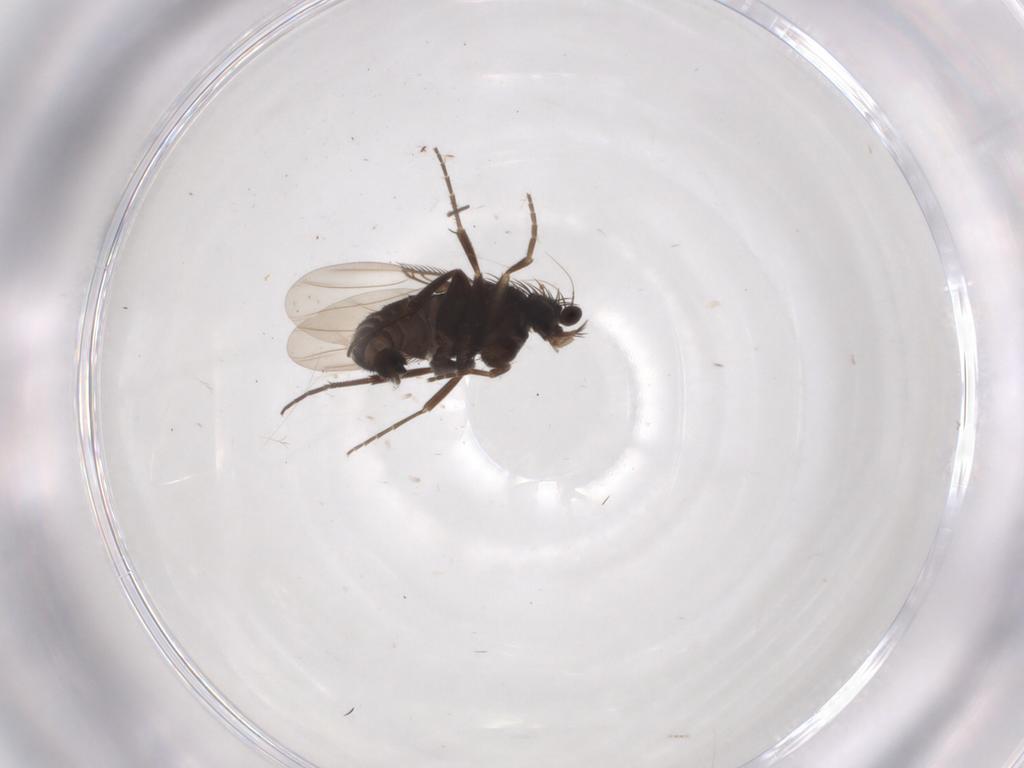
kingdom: Animalia
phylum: Arthropoda
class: Insecta
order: Diptera
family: Phoridae
